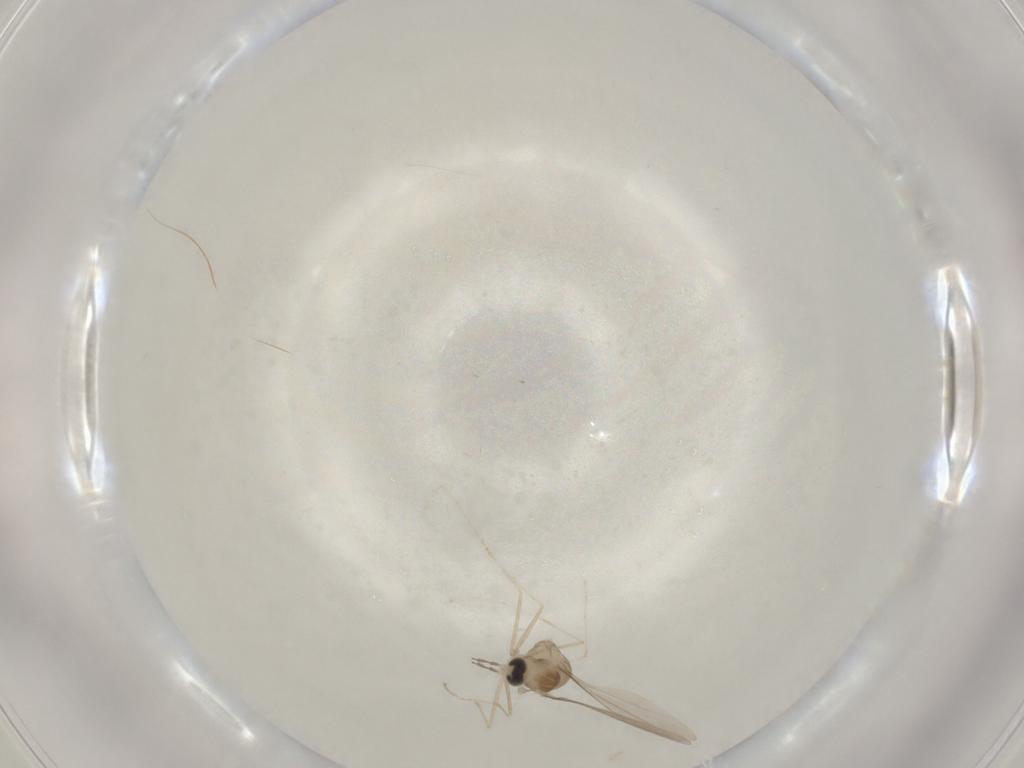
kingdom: Animalia
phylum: Arthropoda
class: Insecta
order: Diptera
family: Cecidomyiidae
